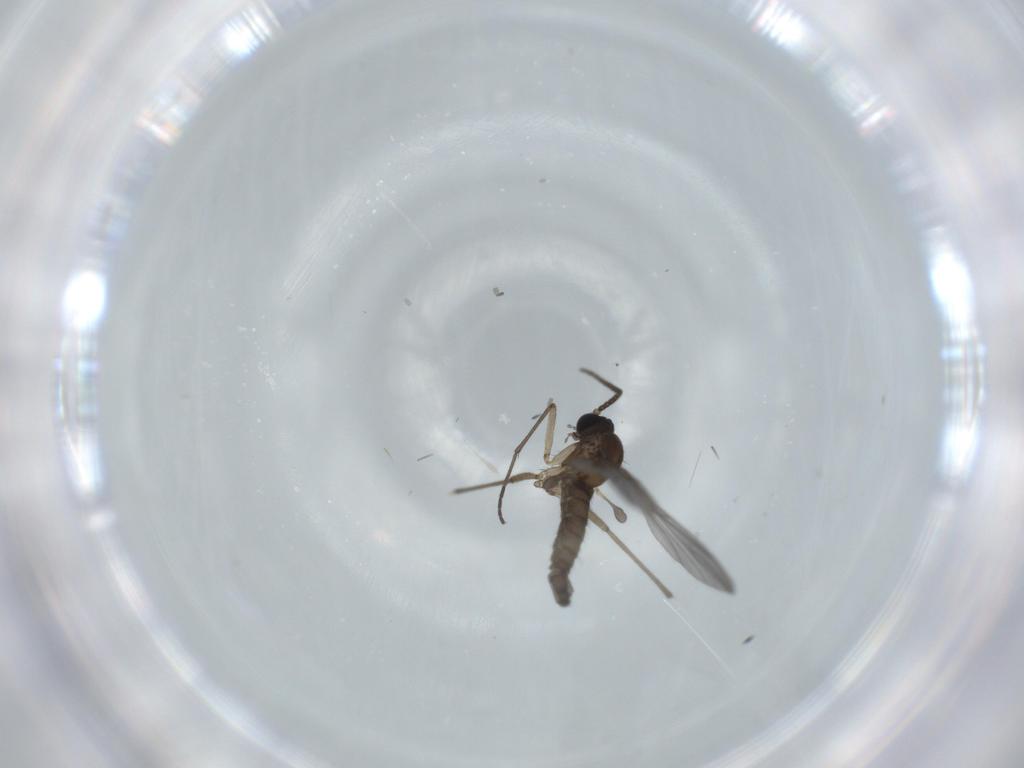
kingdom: Animalia
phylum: Arthropoda
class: Insecta
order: Diptera
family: Sciaridae
